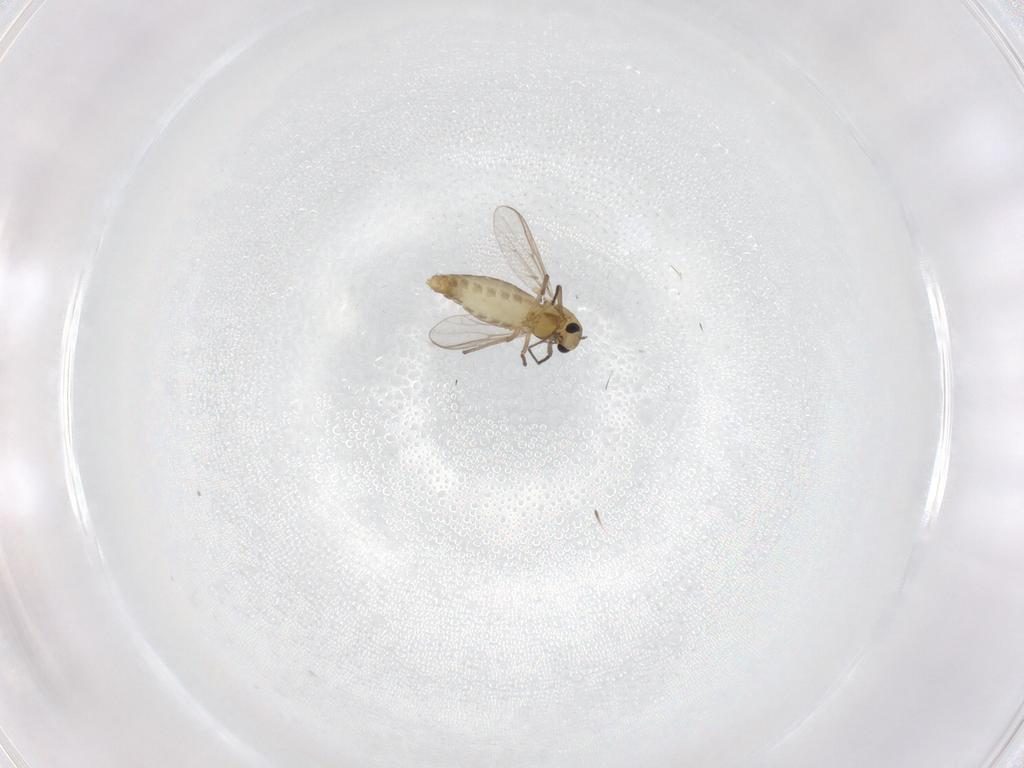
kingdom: Animalia
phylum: Arthropoda
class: Insecta
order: Diptera
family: Chironomidae
